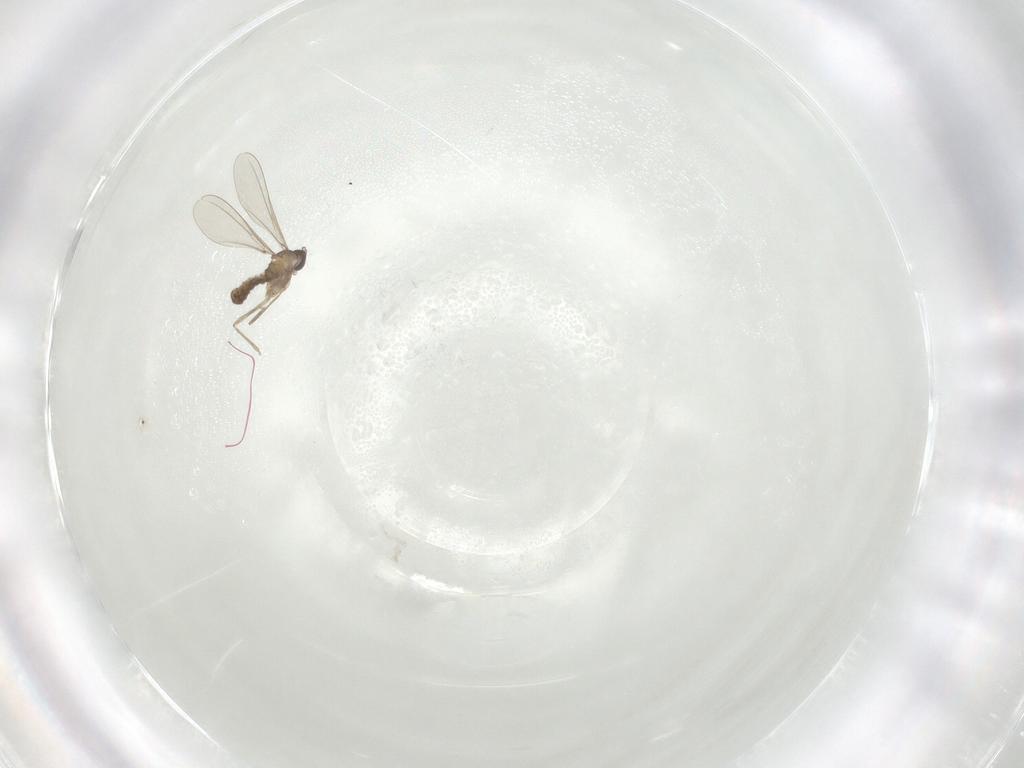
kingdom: Animalia
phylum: Arthropoda
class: Insecta
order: Diptera
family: Cecidomyiidae
